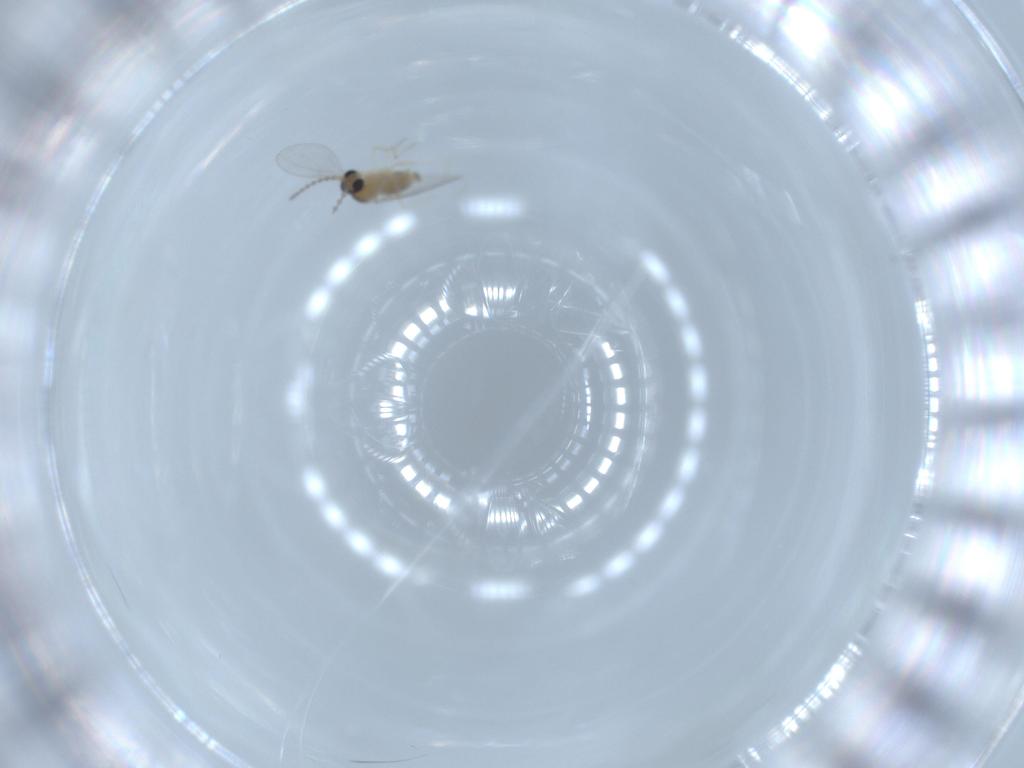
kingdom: Animalia
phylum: Arthropoda
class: Insecta
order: Diptera
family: Cecidomyiidae
